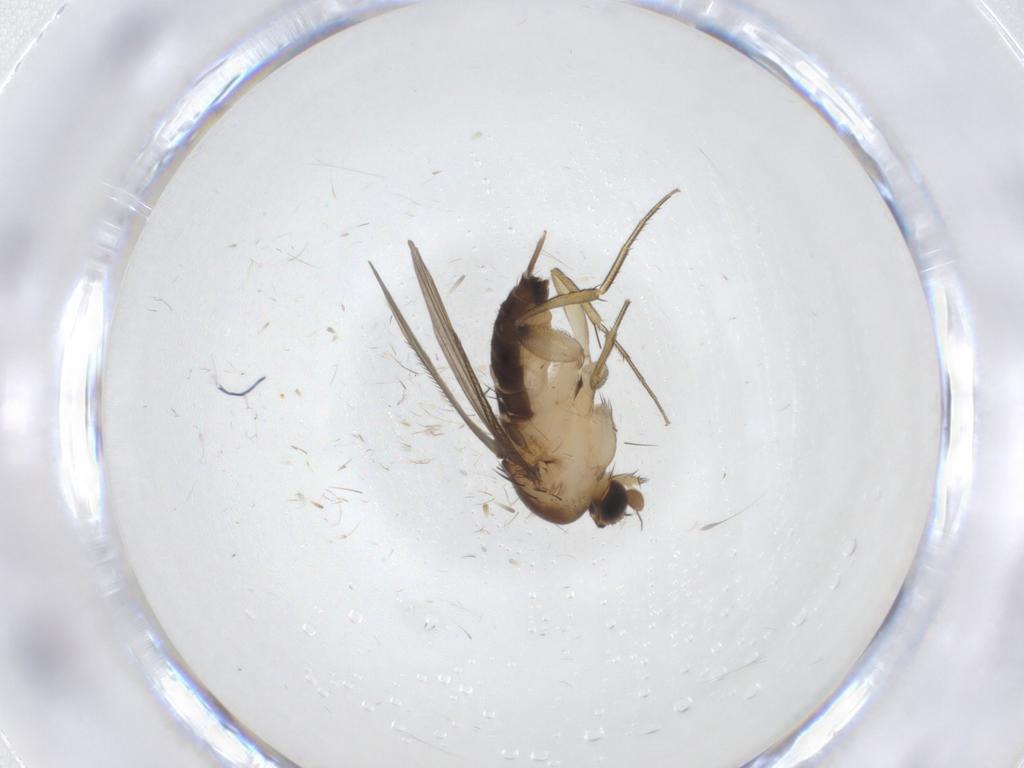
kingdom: Animalia
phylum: Arthropoda
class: Insecta
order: Diptera
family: Phoridae
